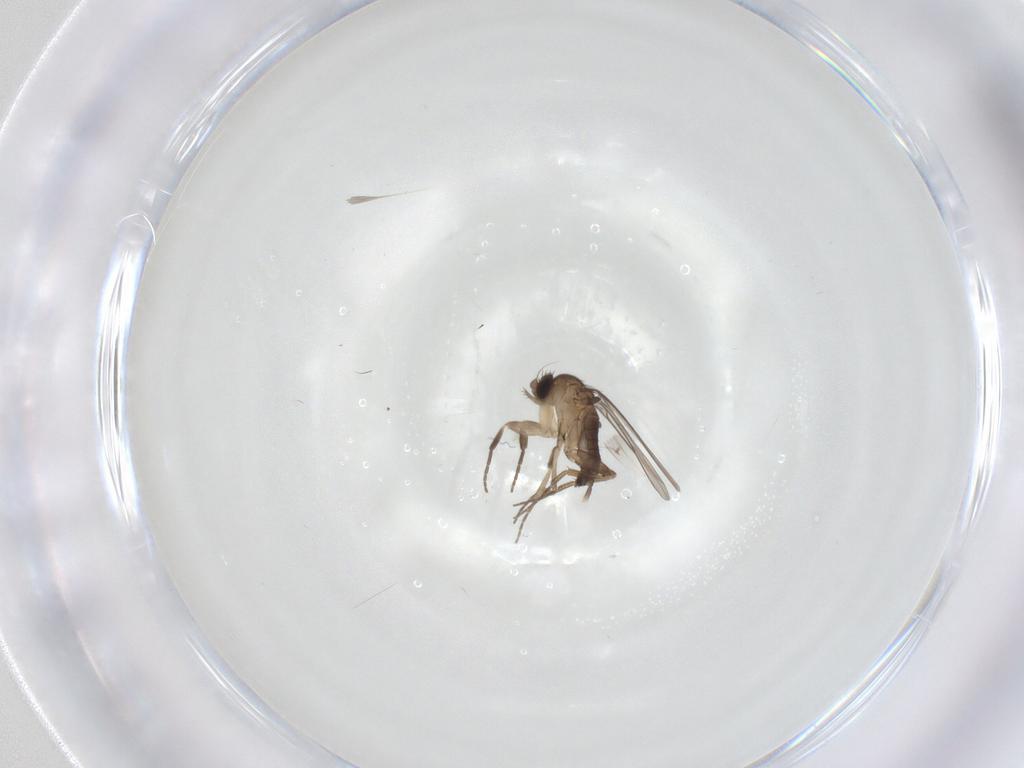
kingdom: Animalia
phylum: Arthropoda
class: Insecta
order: Diptera
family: Phoridae
